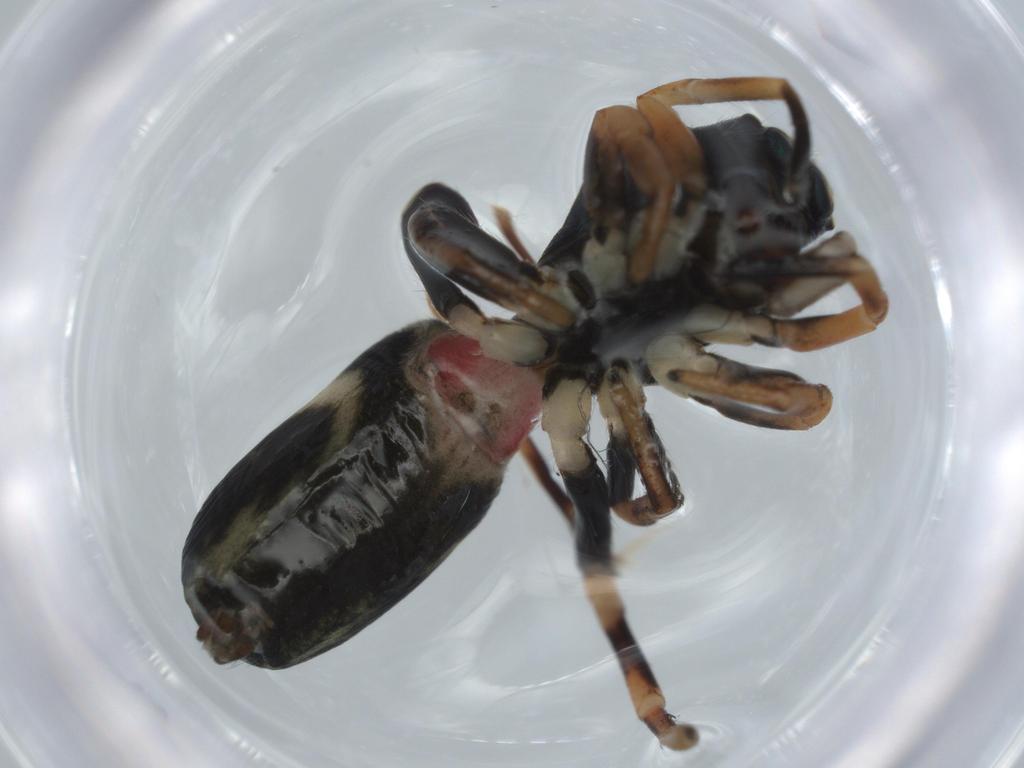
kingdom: Animalia
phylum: Arthropoda
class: Arachnida
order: Araneae
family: Salticidae
